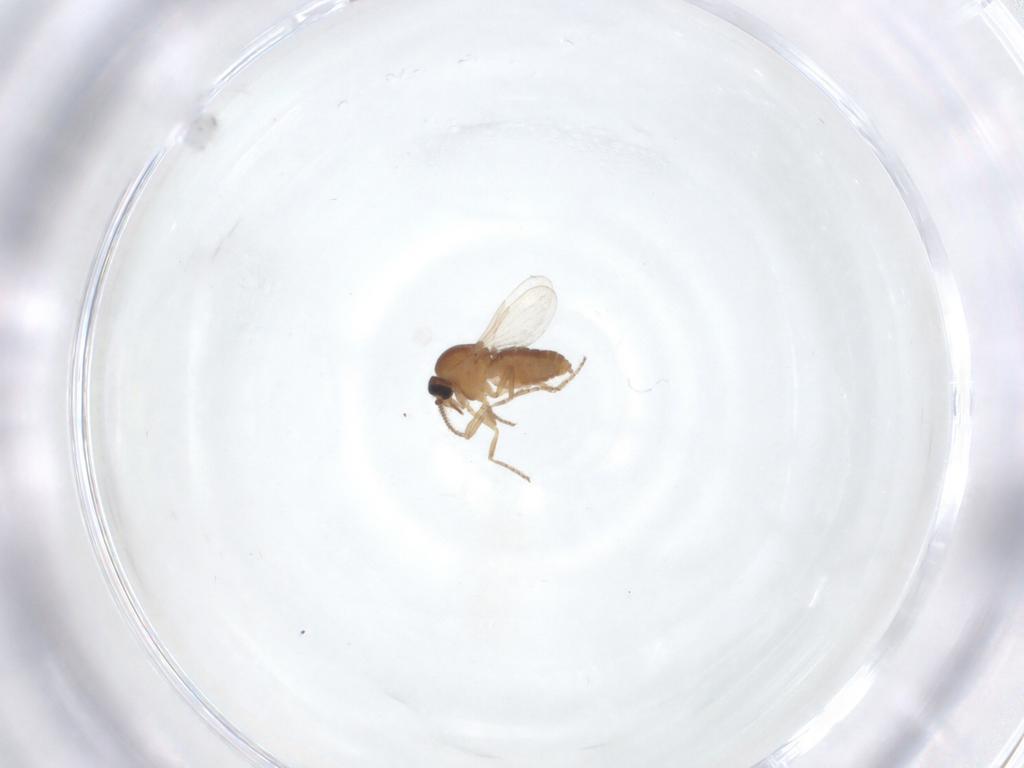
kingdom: Animalia
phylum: Arthropoda
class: Insecta
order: Diptera
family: Ceratopogonidae
